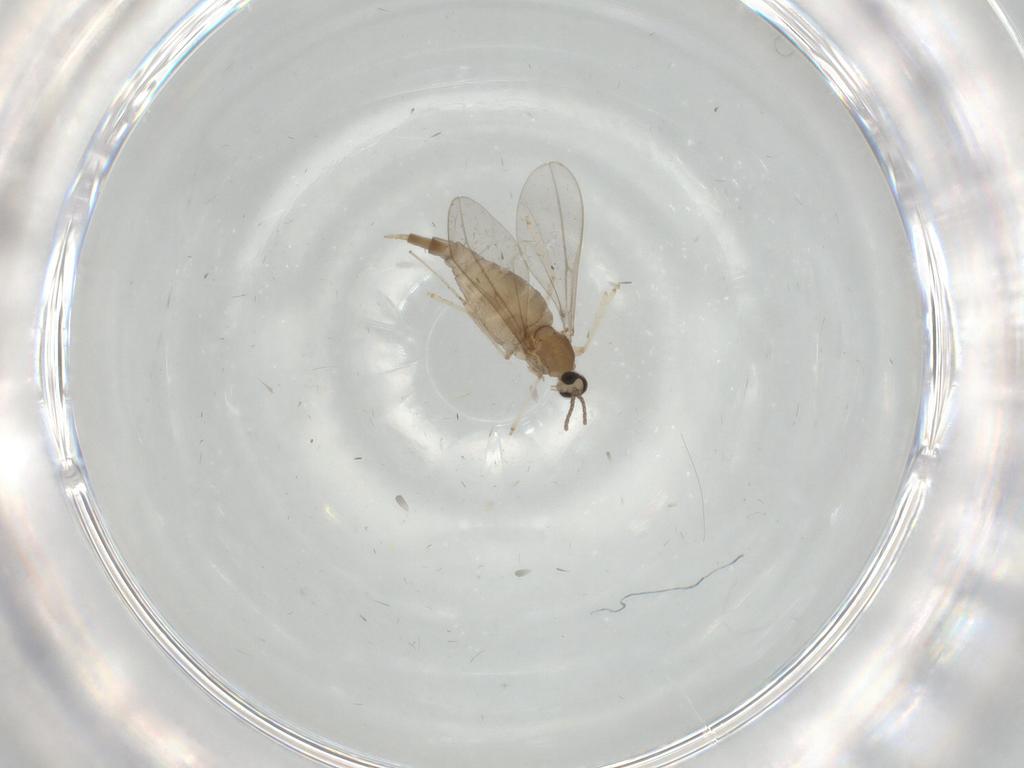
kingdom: Animalia
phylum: Arthropoda
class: Insecta
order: Diptera
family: Cecidomyiidae
